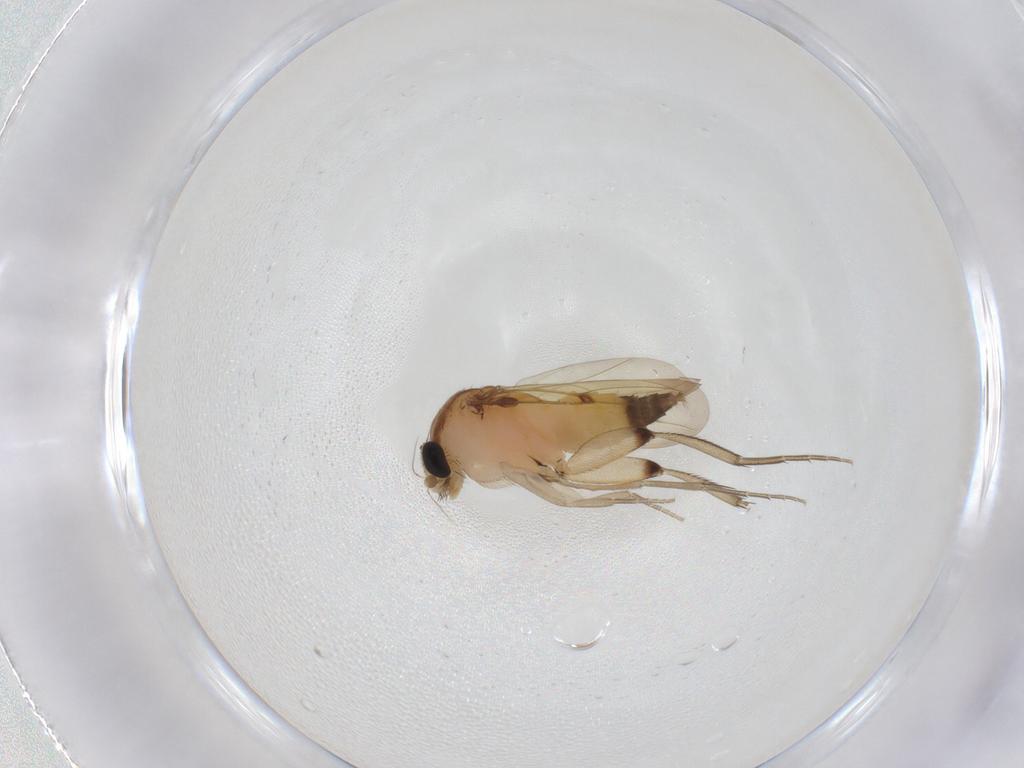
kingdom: Animalia
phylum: Arthropoda
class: Insecta
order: Diptera
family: Phoridae
